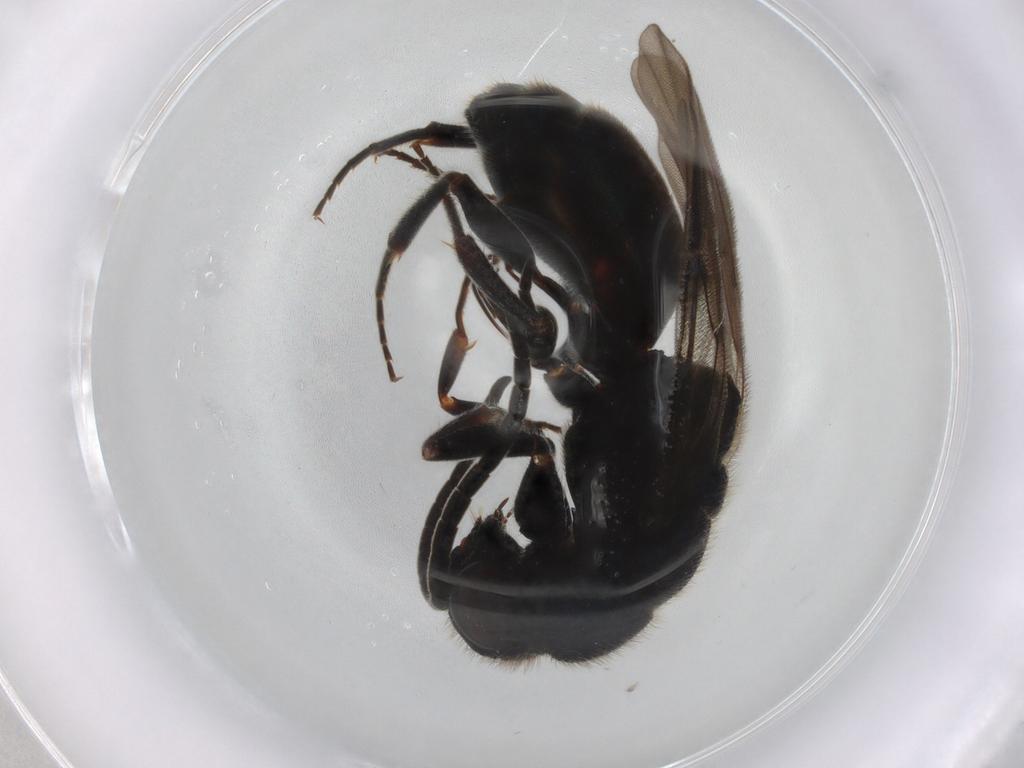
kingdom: Animalia
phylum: Arthropoda
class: Insecta
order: Hymenoptera
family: Chrysididae
